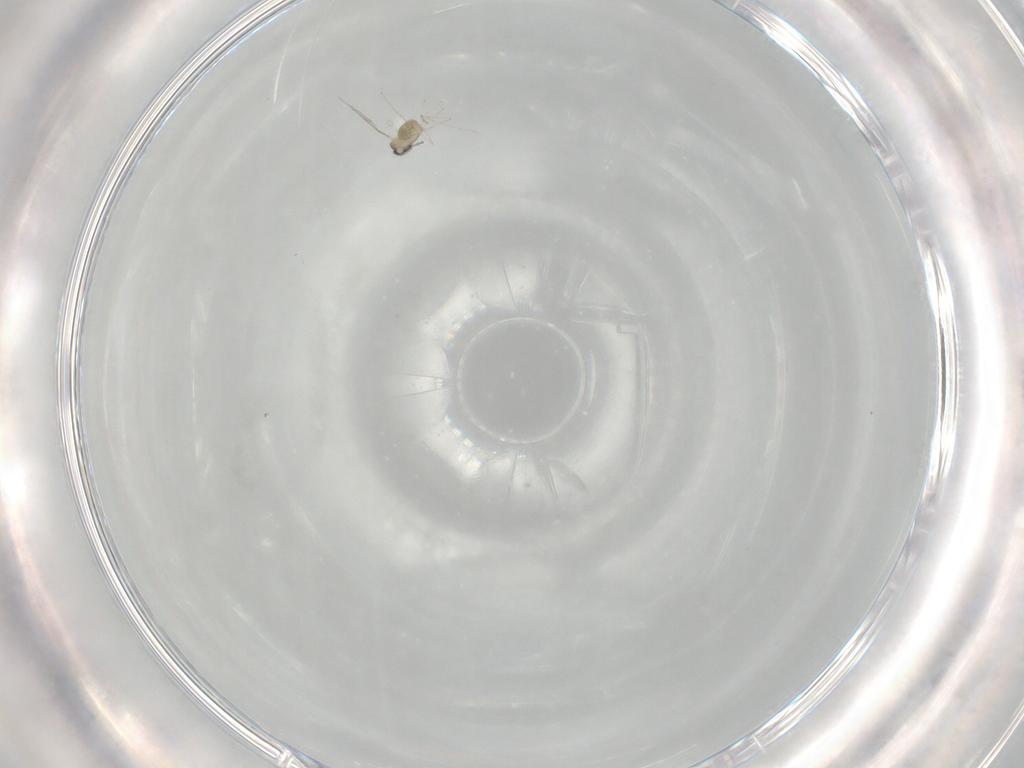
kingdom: Animalia
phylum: Arthropoda
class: Insecta
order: Diptera
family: Cecidomyiidae
